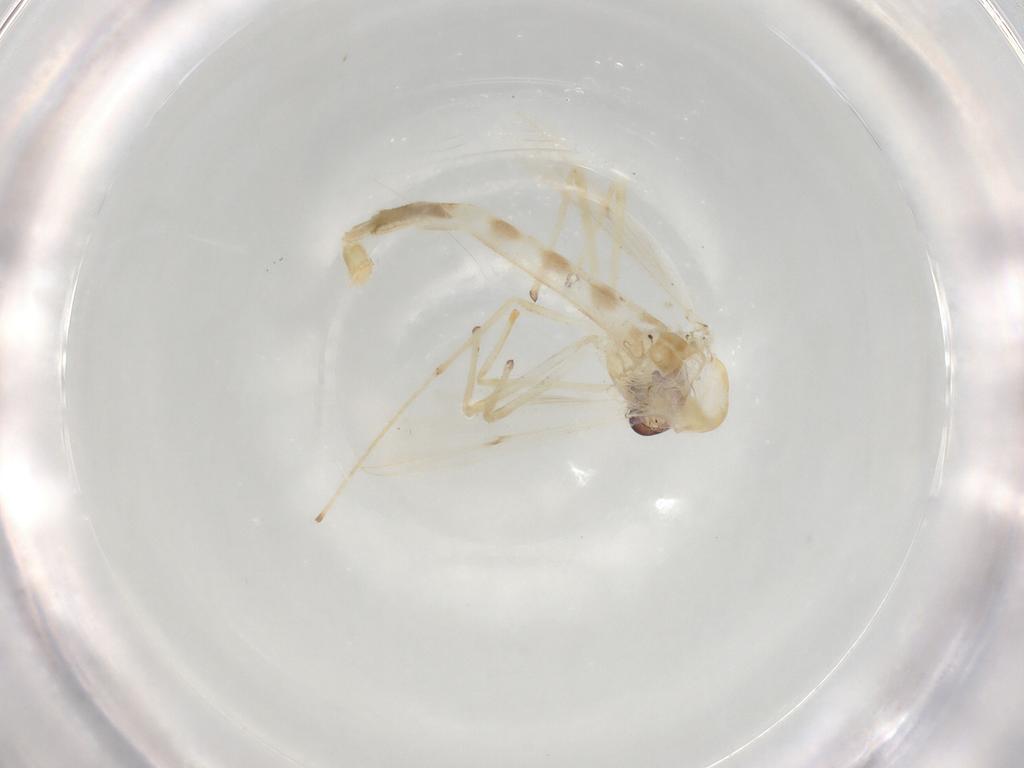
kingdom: Animalia
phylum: Arthropoda
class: Insecta
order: Diptera
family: Chironomidae
